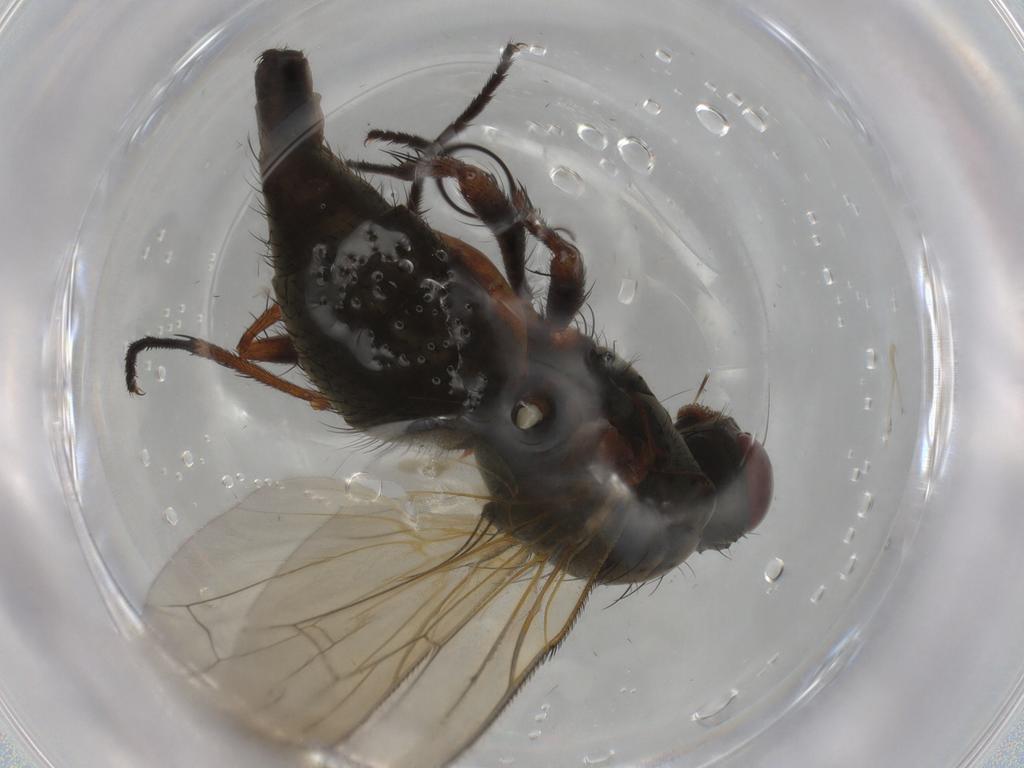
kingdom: Animalia
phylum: Arthropoda
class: Insecta
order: Diptera
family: Anthomyiidae
